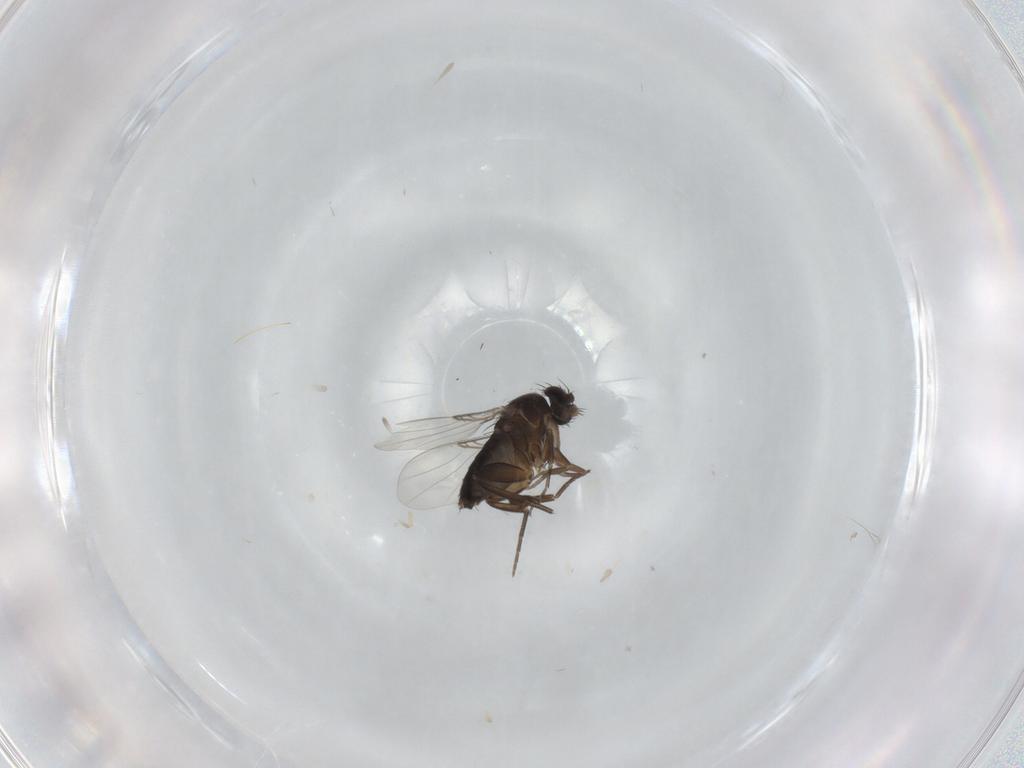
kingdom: Animalia
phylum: Arthropoda
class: Insecta
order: Diptera
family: Phoridae
